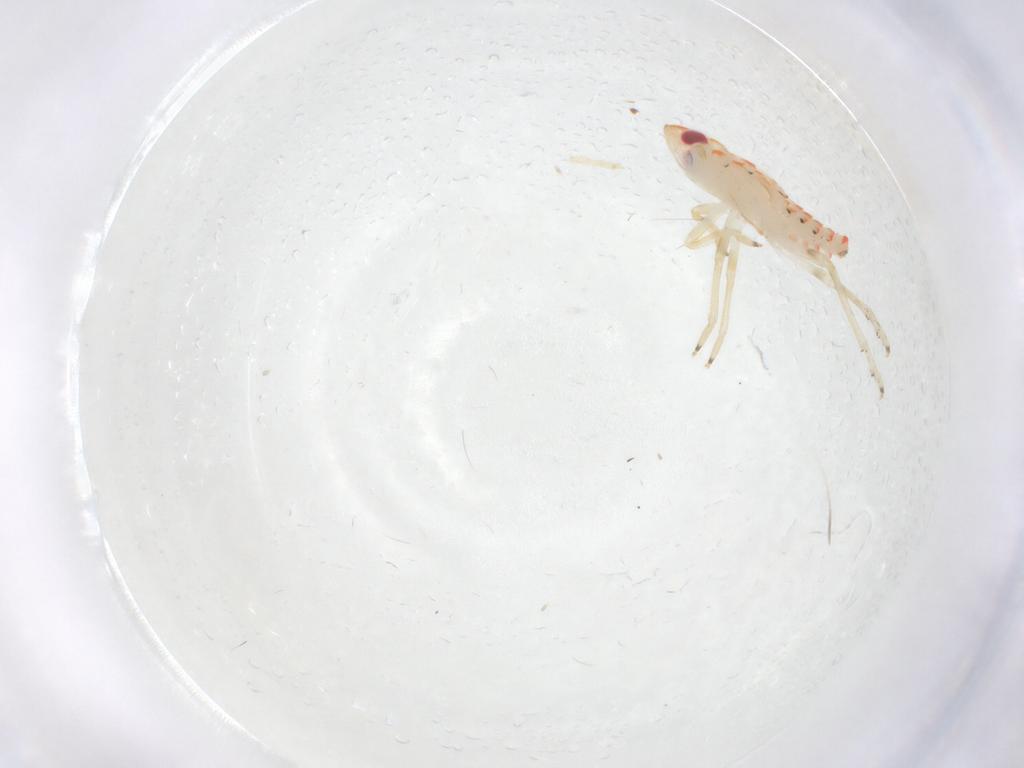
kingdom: Animalia
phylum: Arthropoda
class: Insecta
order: Hemiptera
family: Tropiduchidae
